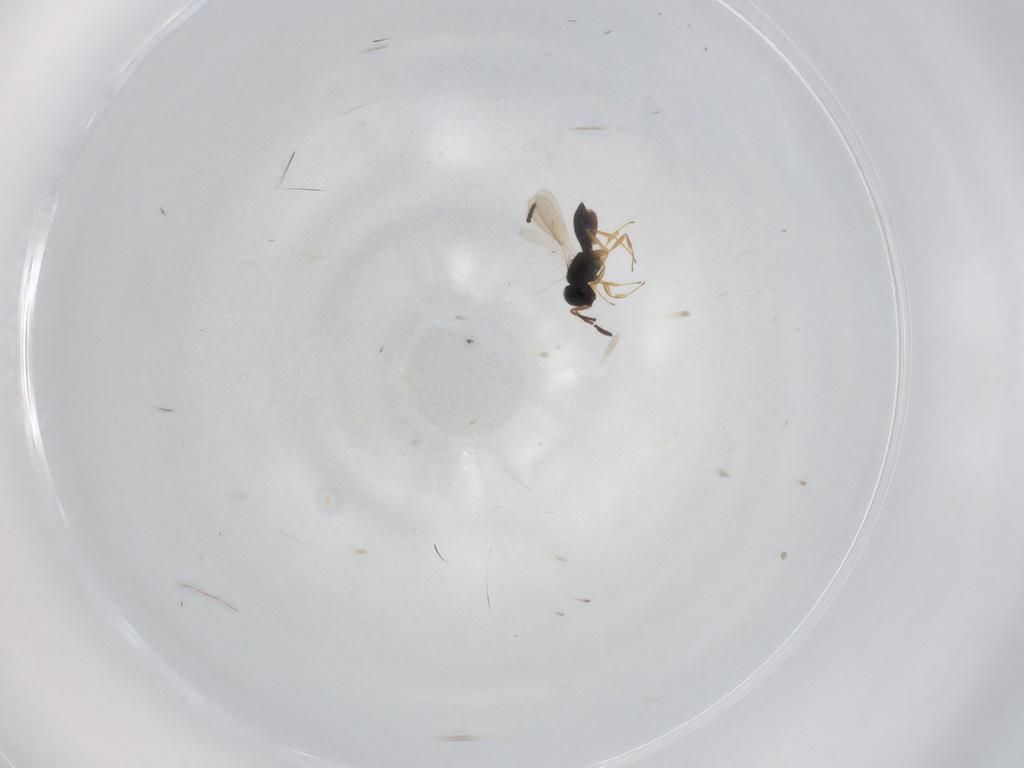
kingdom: Animalia
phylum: Arthropoda
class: Insecta
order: Hymenoptera
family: Scelionidae
